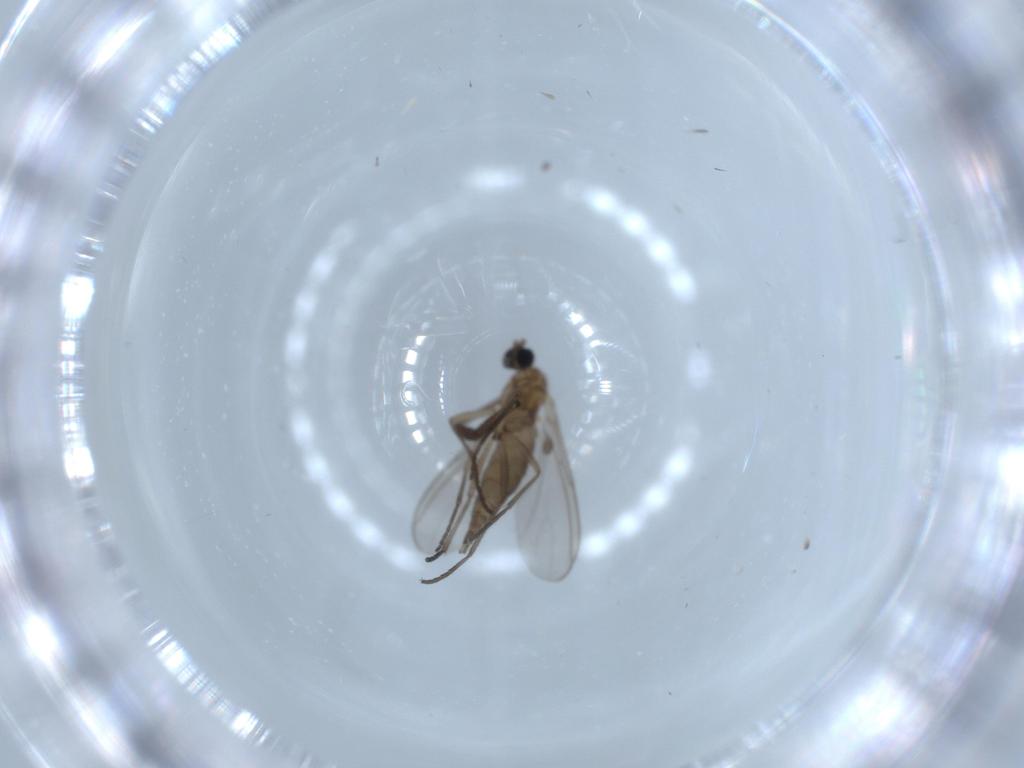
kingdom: Animalia
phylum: Arthropoda
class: Insecta
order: Diptera
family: Sciaridae
